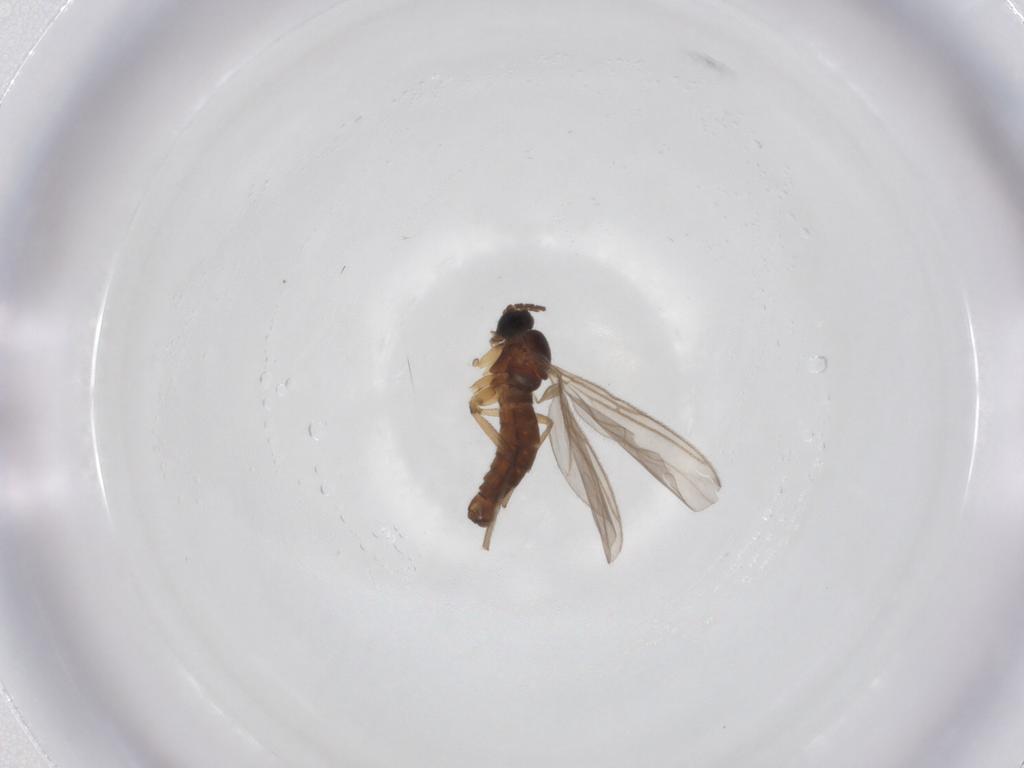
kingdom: Animalia
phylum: Arthropoda
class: Insecta
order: Diptera
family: Sciaridae
